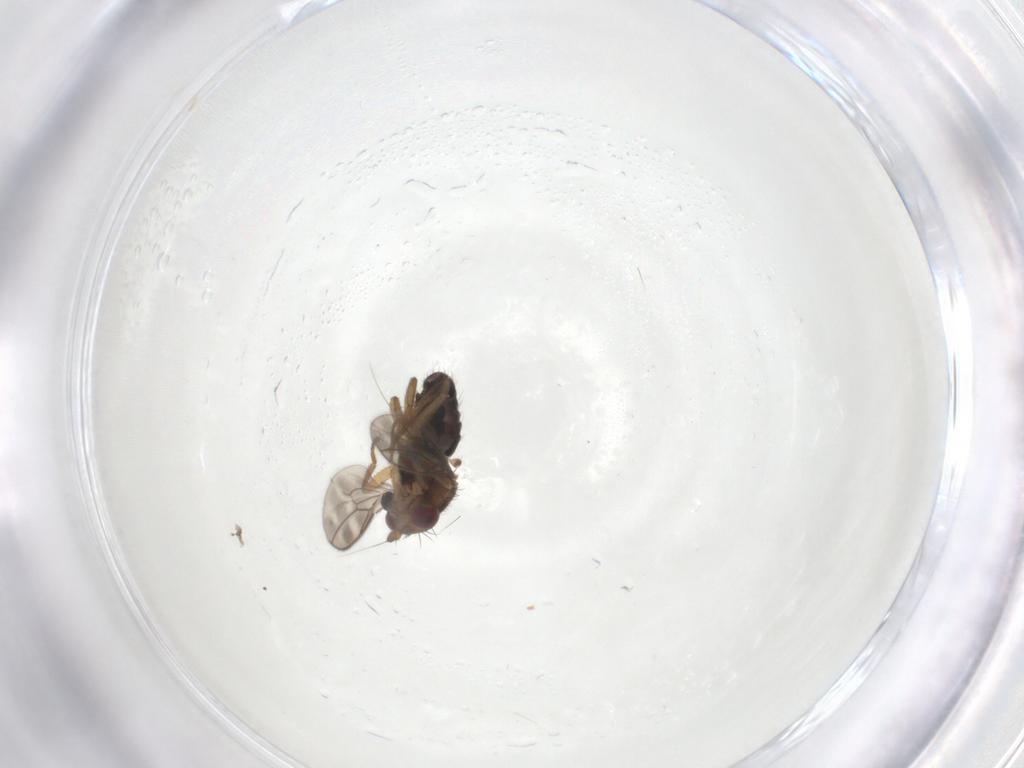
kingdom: Animalia
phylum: Arthropoda
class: Insecta
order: Diptera
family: Sphaeroceridae
